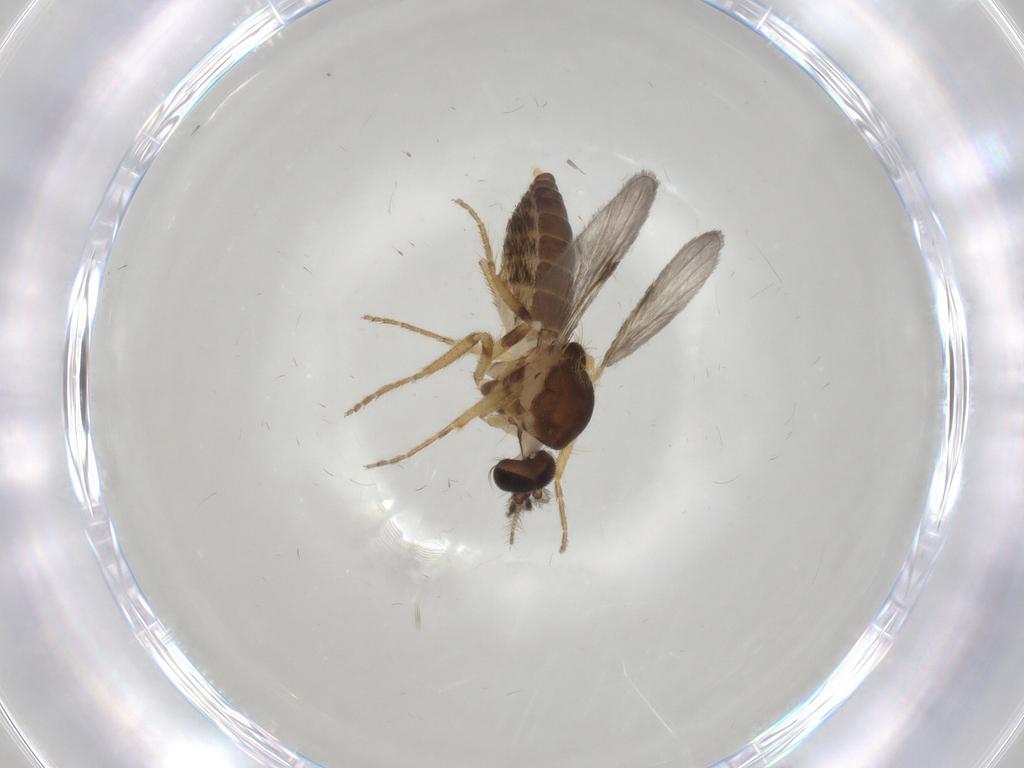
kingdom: Animalia
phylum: Arthropoda
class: Insecta
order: Diptera
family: Ceratopogonidae
